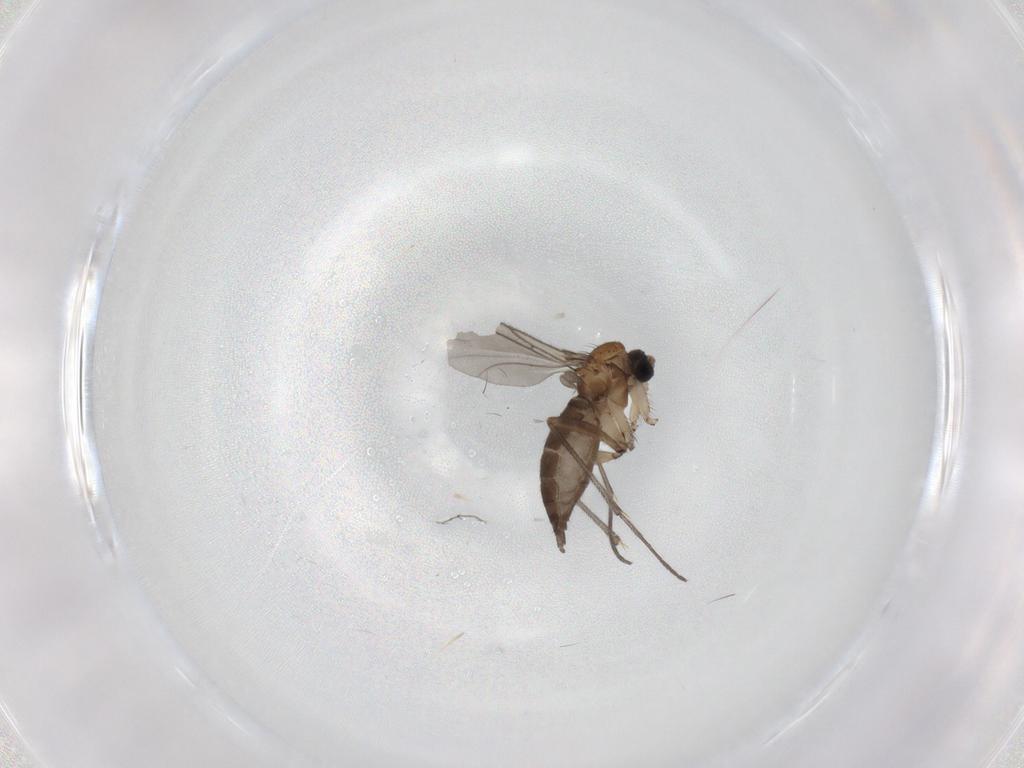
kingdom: Animalia
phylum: Arthropoda
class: Insecta
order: Diptera
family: Sciaridae
